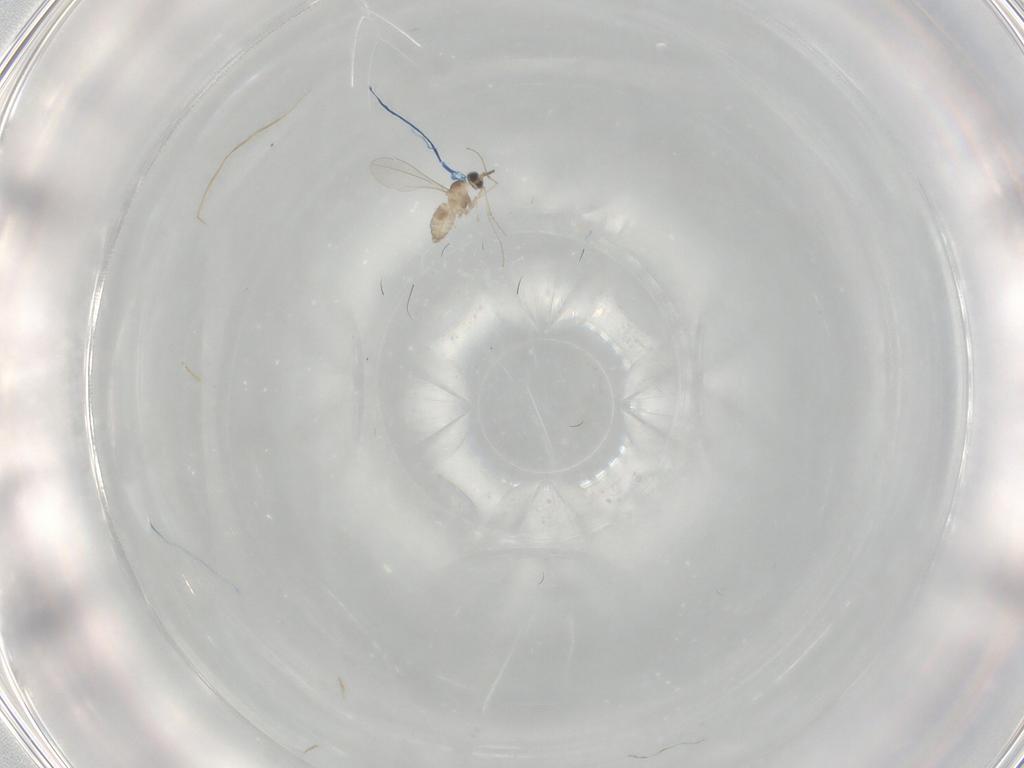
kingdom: Animalia
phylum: Arthropoda
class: Insecta
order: Diptera
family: Cecidomyiidae
